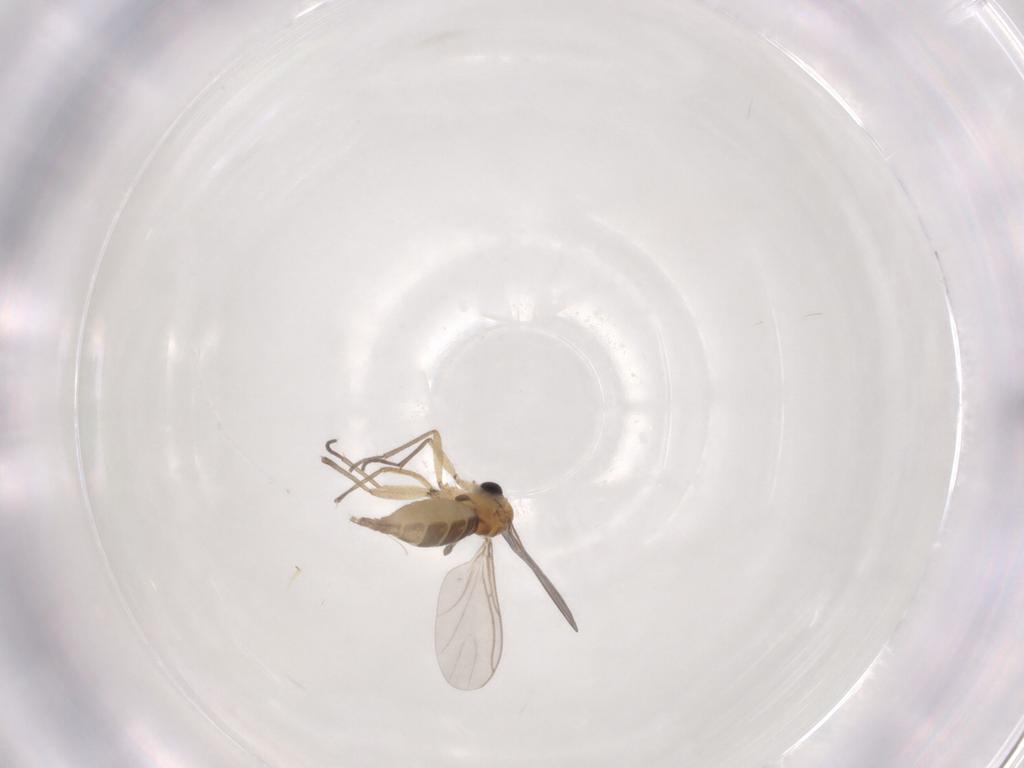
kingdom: Animalia
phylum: Arthropoda
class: Insecta
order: Diptera
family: Sciaridae
